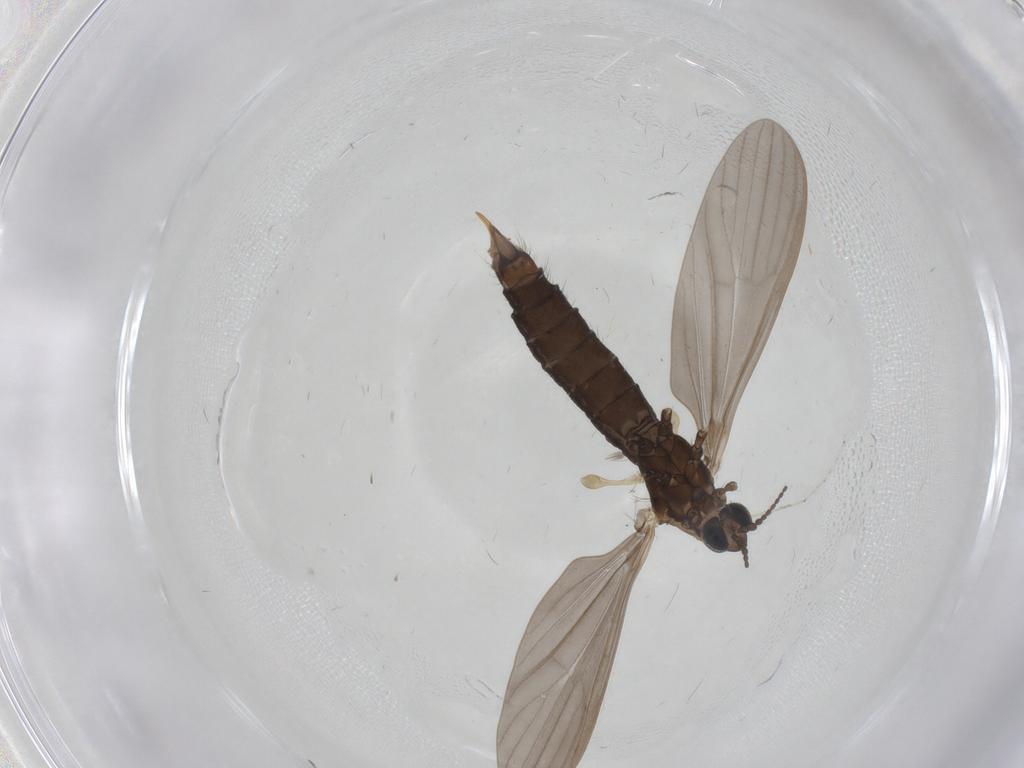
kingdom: Animalia
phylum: Arthropoda
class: Insecta
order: Diptera
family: Limoniidae
